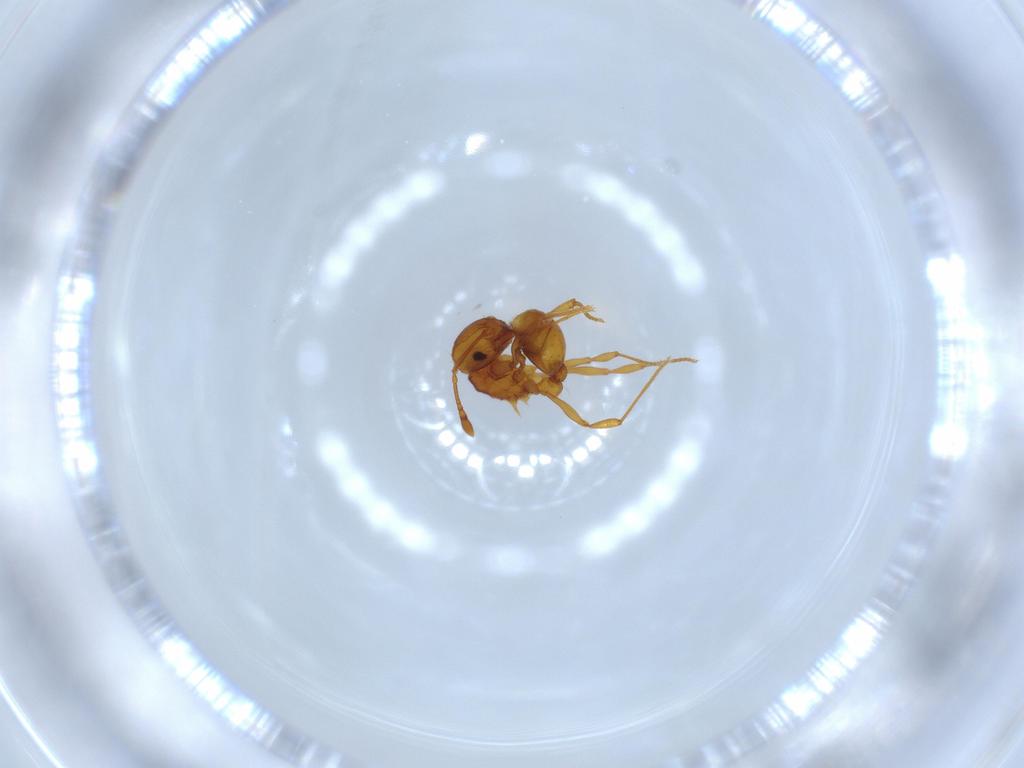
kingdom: Animalia
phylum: Arthropoda
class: Insecta
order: Hymenoptera
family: Formicidae
